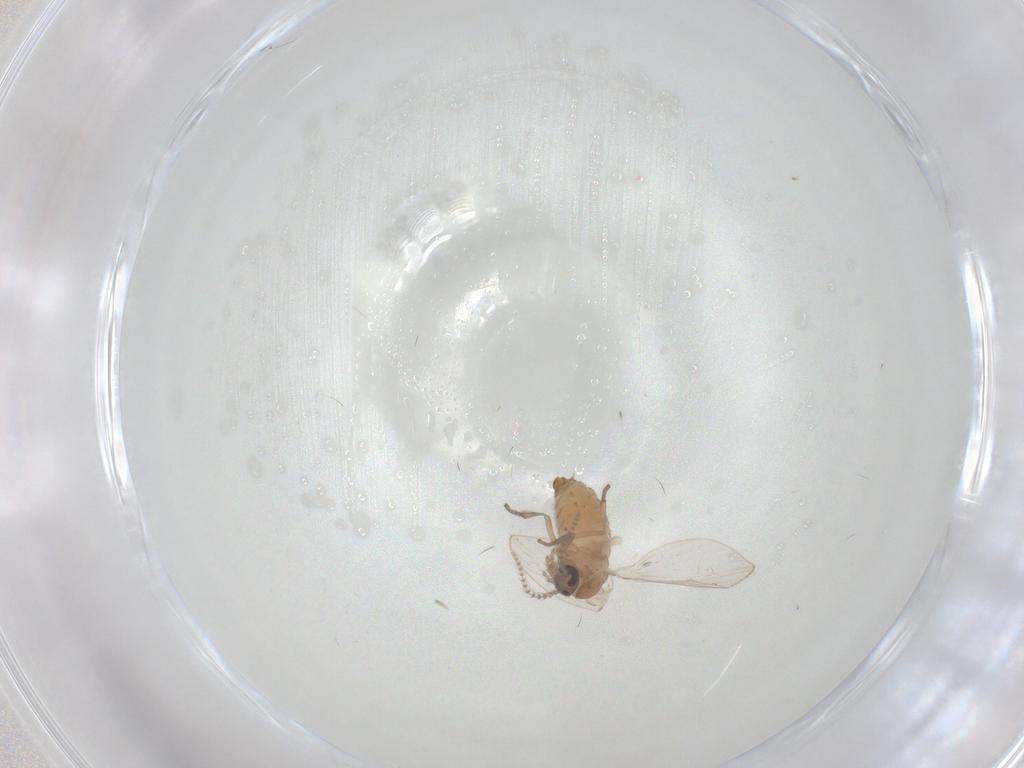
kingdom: Animalia
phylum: Arthropoda
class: Insecta
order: Diptera
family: Psychodidae
